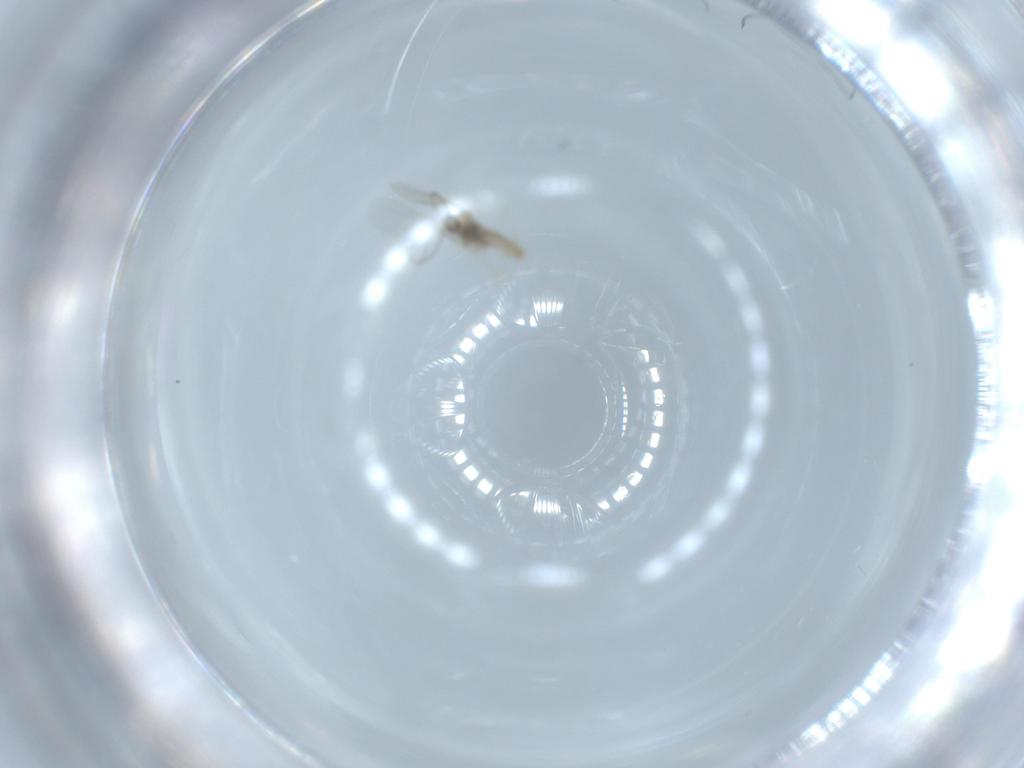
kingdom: Animalia
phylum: Arthropoda
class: Insecta
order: Diptera
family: Cecidomyiidae
